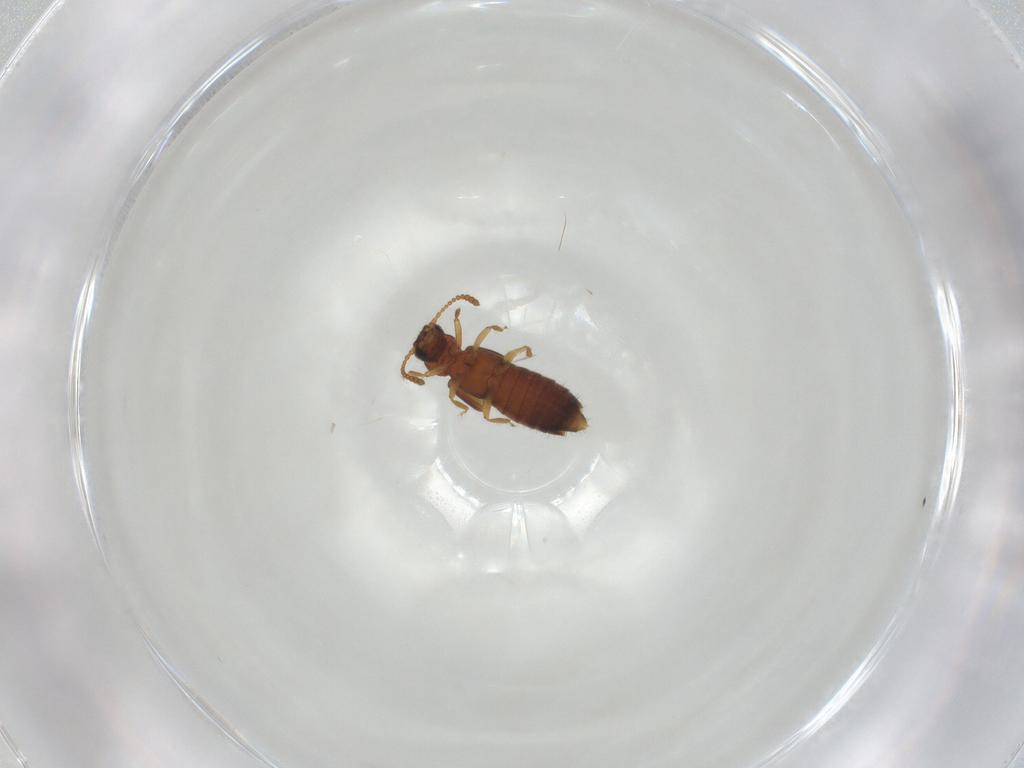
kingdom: Animalia
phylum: Arthropoda
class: Insecta
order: Coleoptera
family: Staphylinidae
